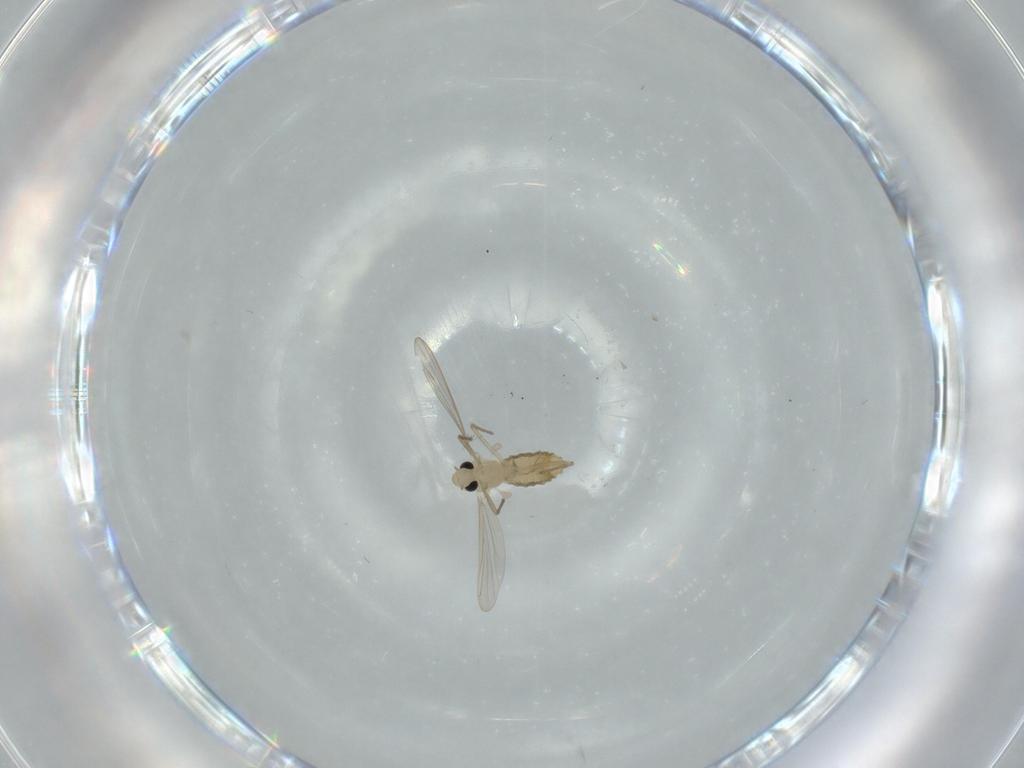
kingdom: Animalia
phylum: Arthropoda
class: Insecta
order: Diptera
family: Chironomidae
